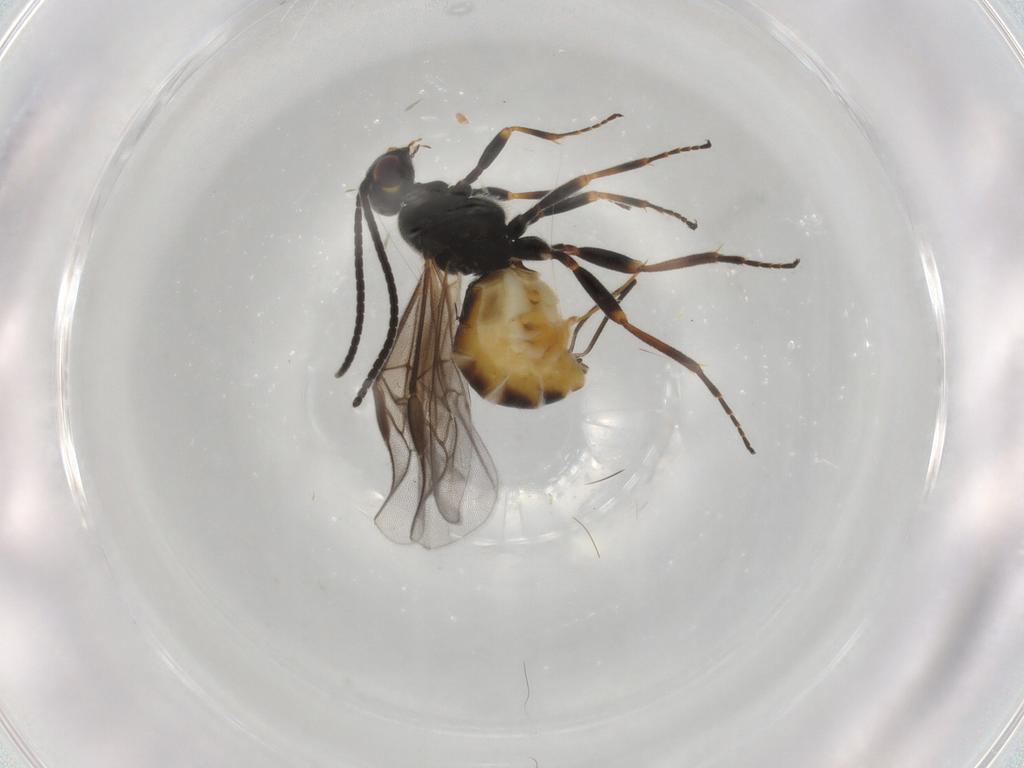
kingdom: Animalia
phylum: Arthropoda
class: Insecta
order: Hymenoptera
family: Braconidae
